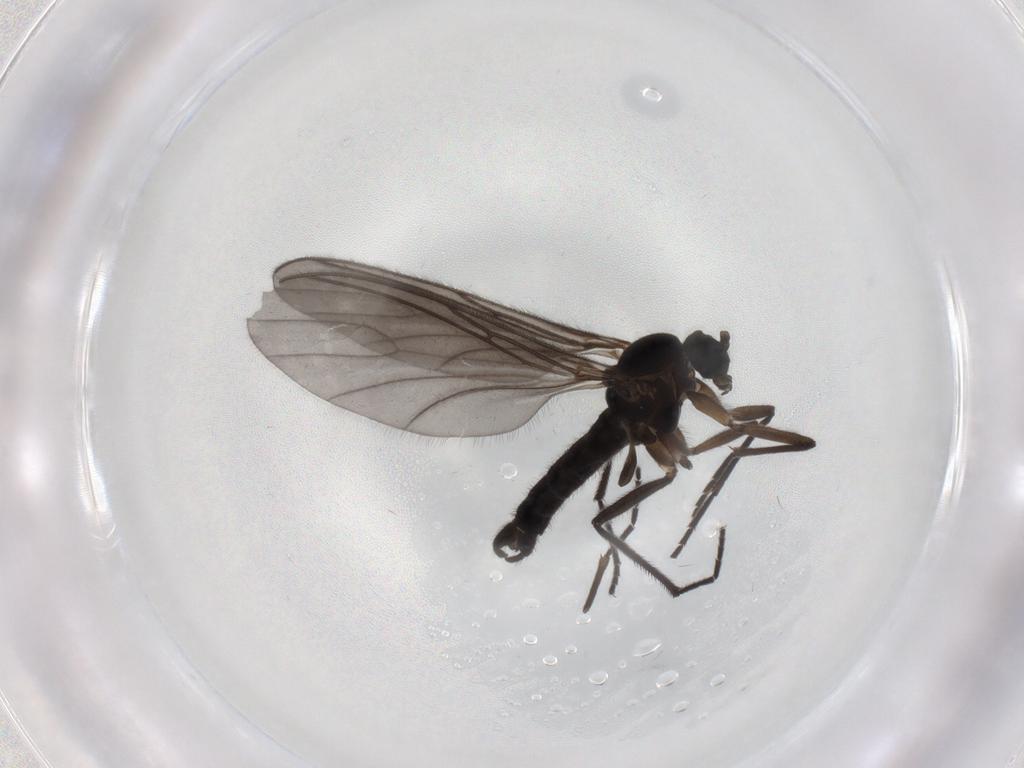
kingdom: Animalia
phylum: Arthropoda
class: Insecta
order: Diptera
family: Sciaridae
